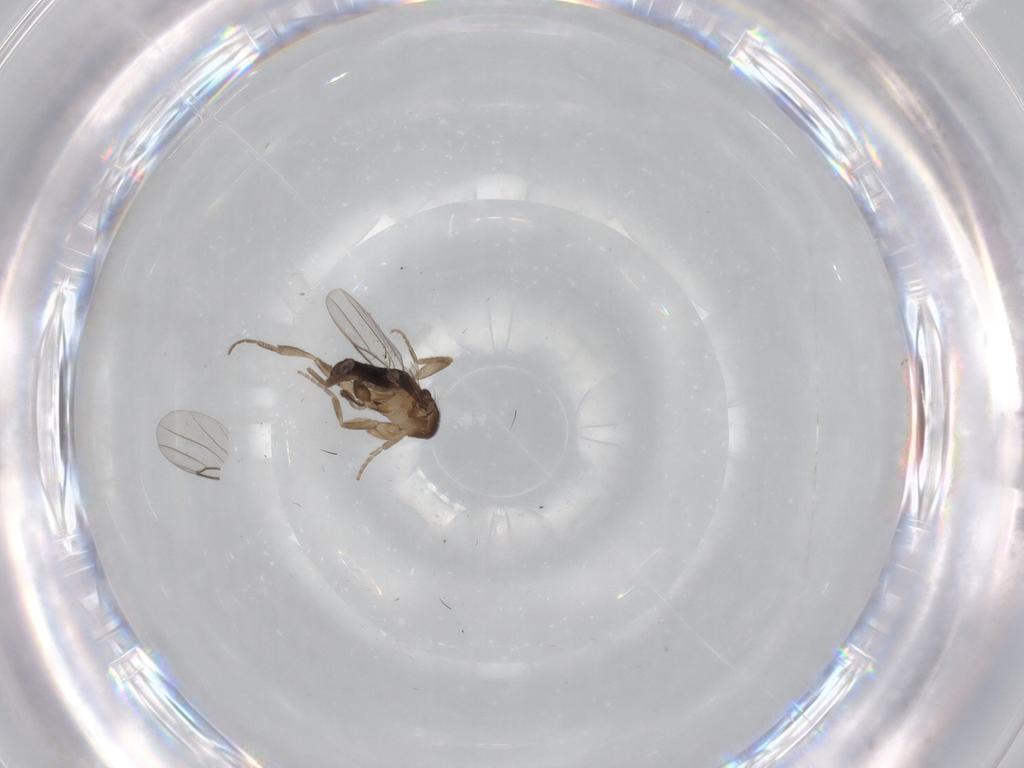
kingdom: Animalia
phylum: Arthropoda
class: Insecta
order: Diptera
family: Phoridae
